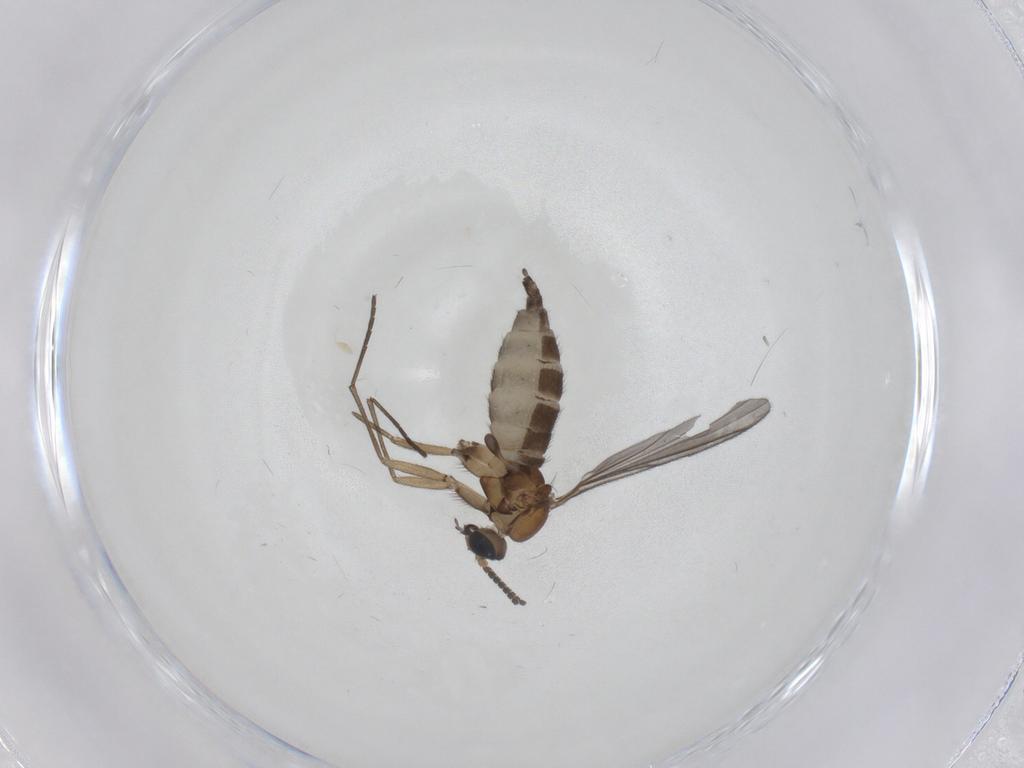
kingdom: Animalia
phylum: Arthropoda
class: Insecta
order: Diptera
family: Sciaridae
